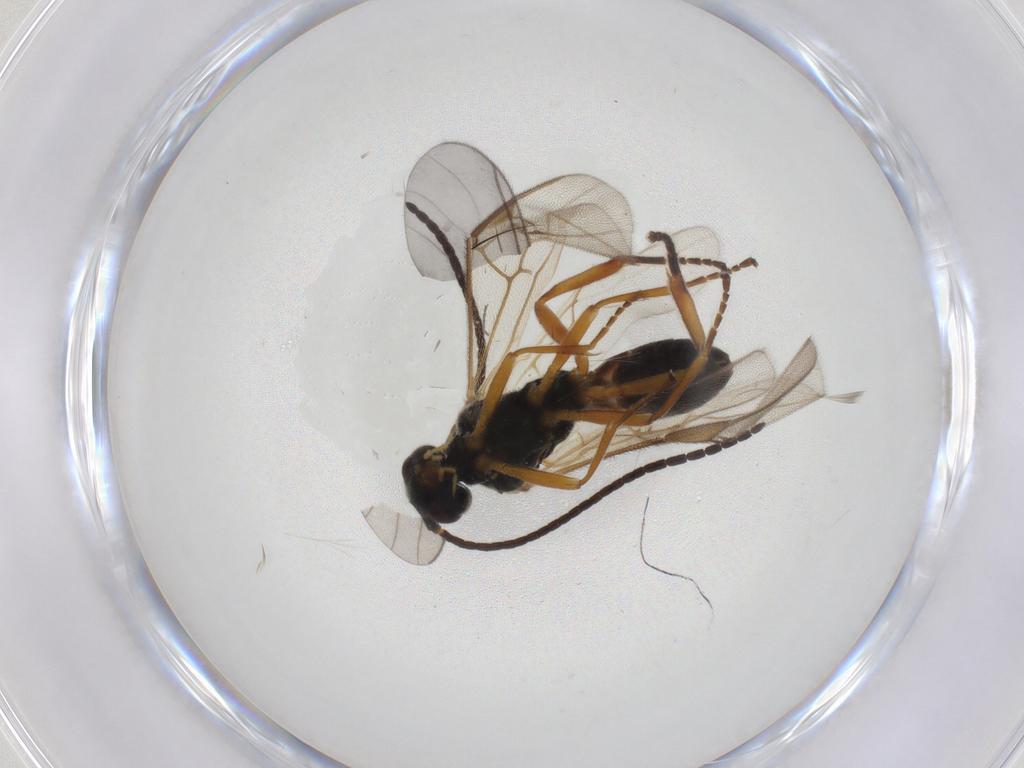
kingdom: Animalia
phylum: Arthropoda
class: Insecta
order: Hymenoptera
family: Braconidae
